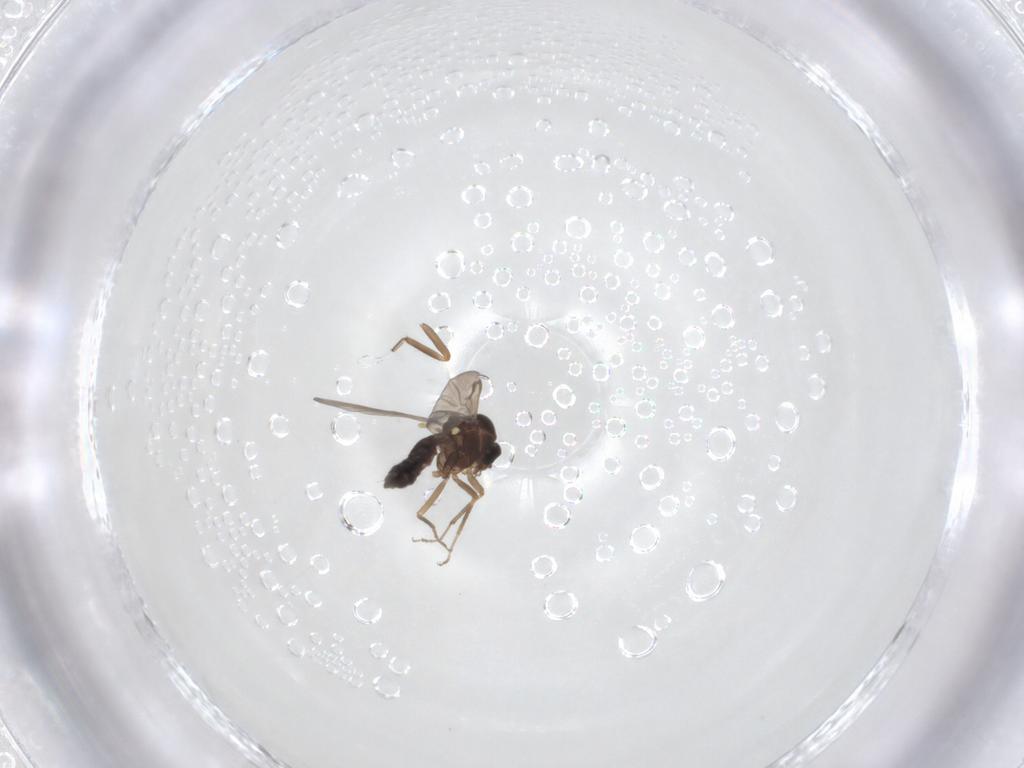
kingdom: Animalia
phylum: Arthropoda
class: Insecta
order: Diptera
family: Ceratopogonidae
